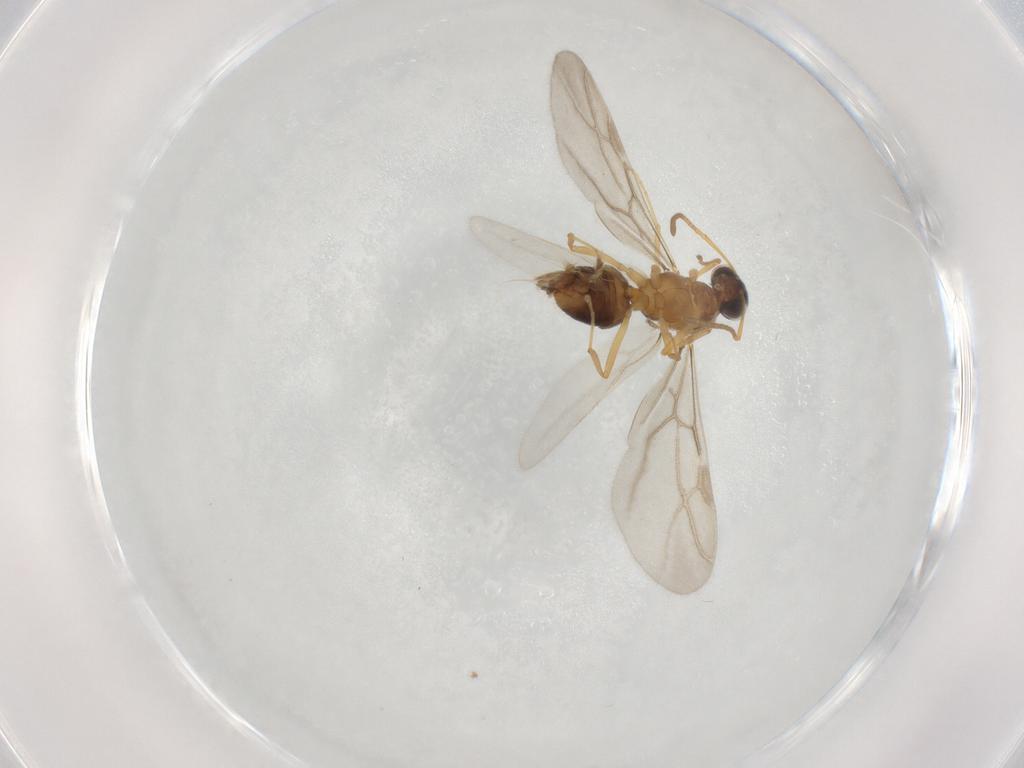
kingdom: Animalia
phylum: Arthropoda
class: Insecta
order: Hymenoptera
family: Formicidae
